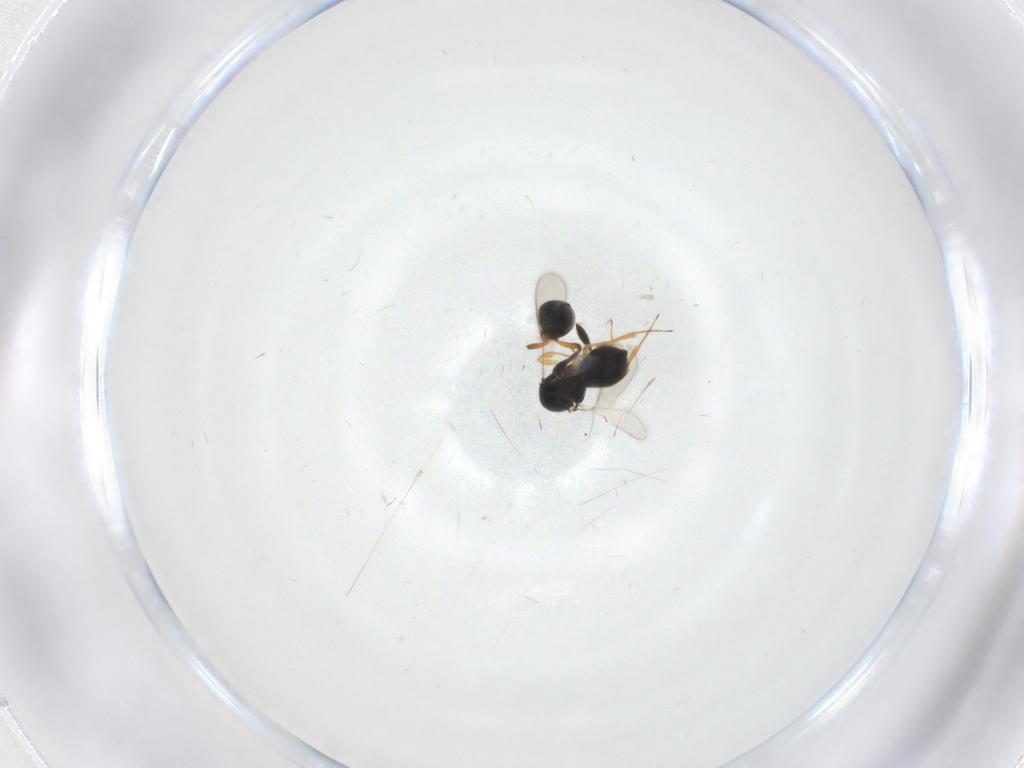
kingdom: Animalia
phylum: Arthropoda
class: Insecta
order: Hymenoptera
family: Scelionidae
